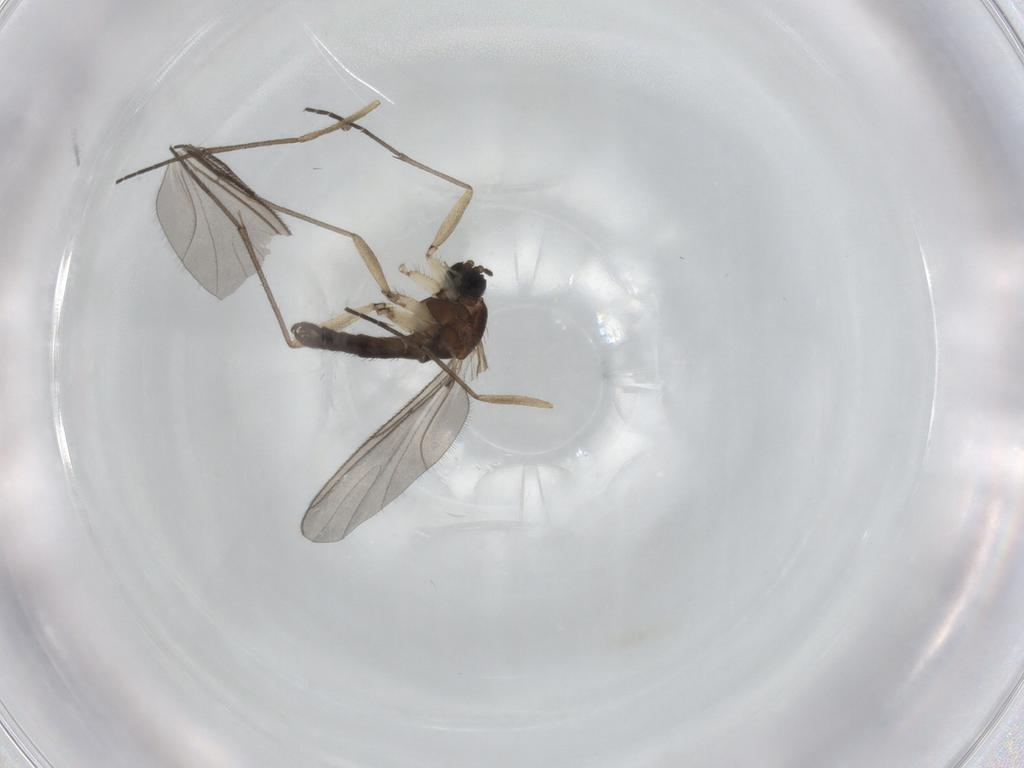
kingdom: Animalia
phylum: Arthropoda
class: Insecta
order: Diptera
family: Sciaridae
